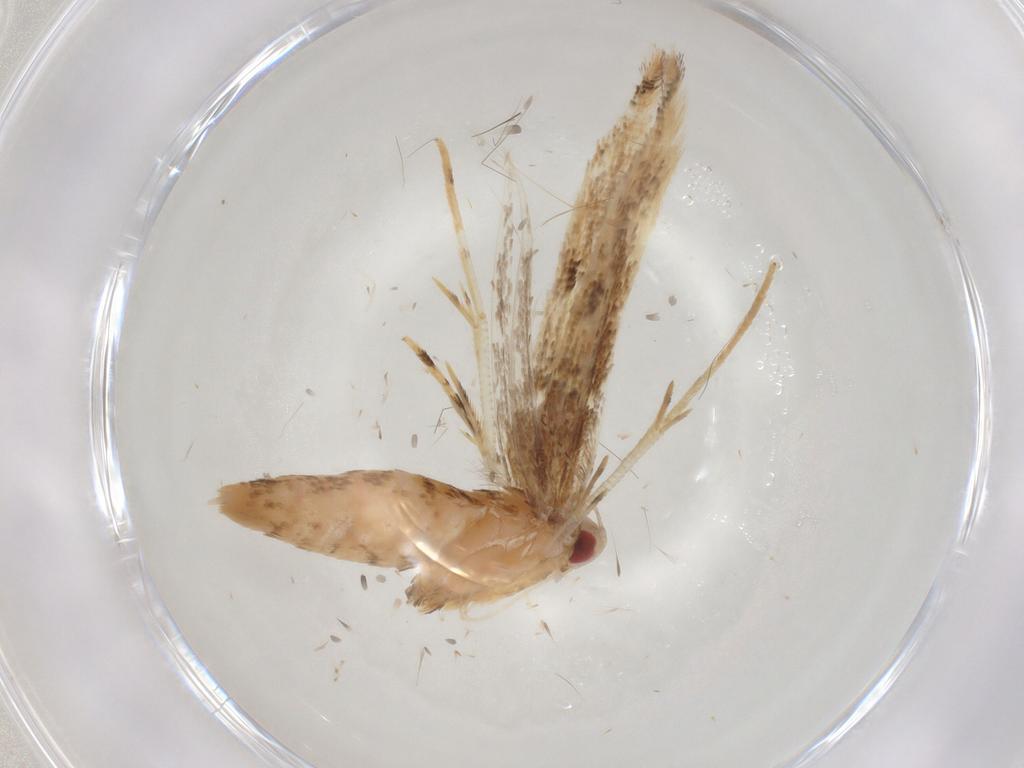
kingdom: Animalia
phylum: Arthropoda
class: Insecta
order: Lepidoptera
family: Cosmopterigidae
